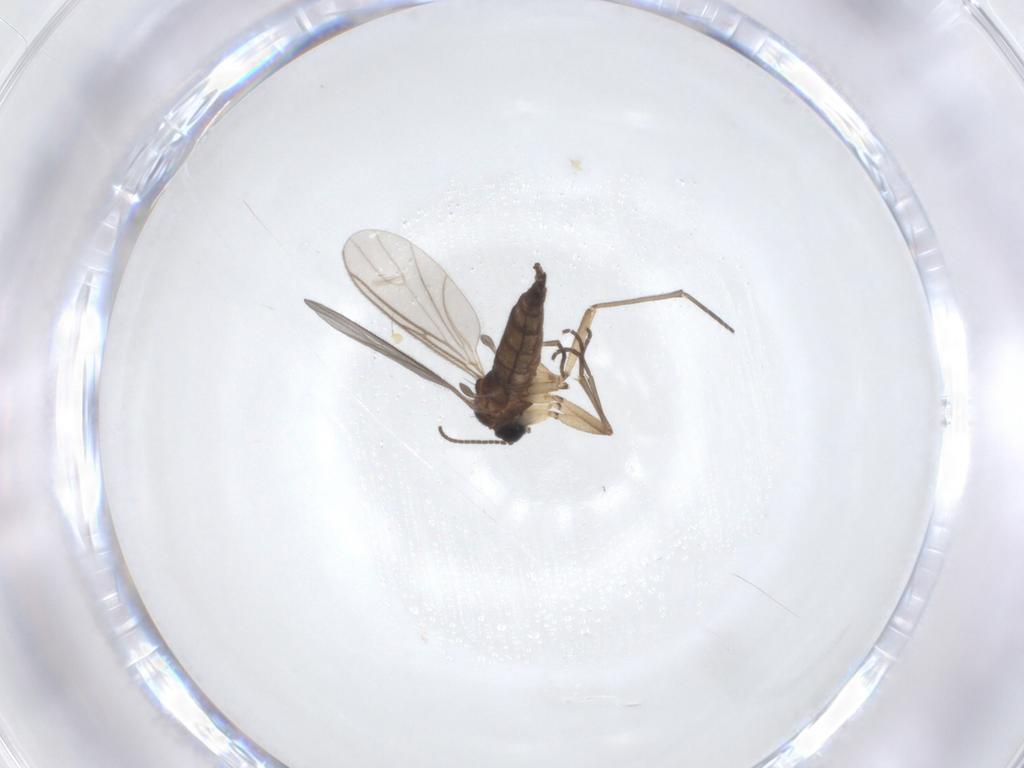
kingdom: Animalia
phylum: Arthropoda
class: Insecta
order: Diptera
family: Sciaridae
